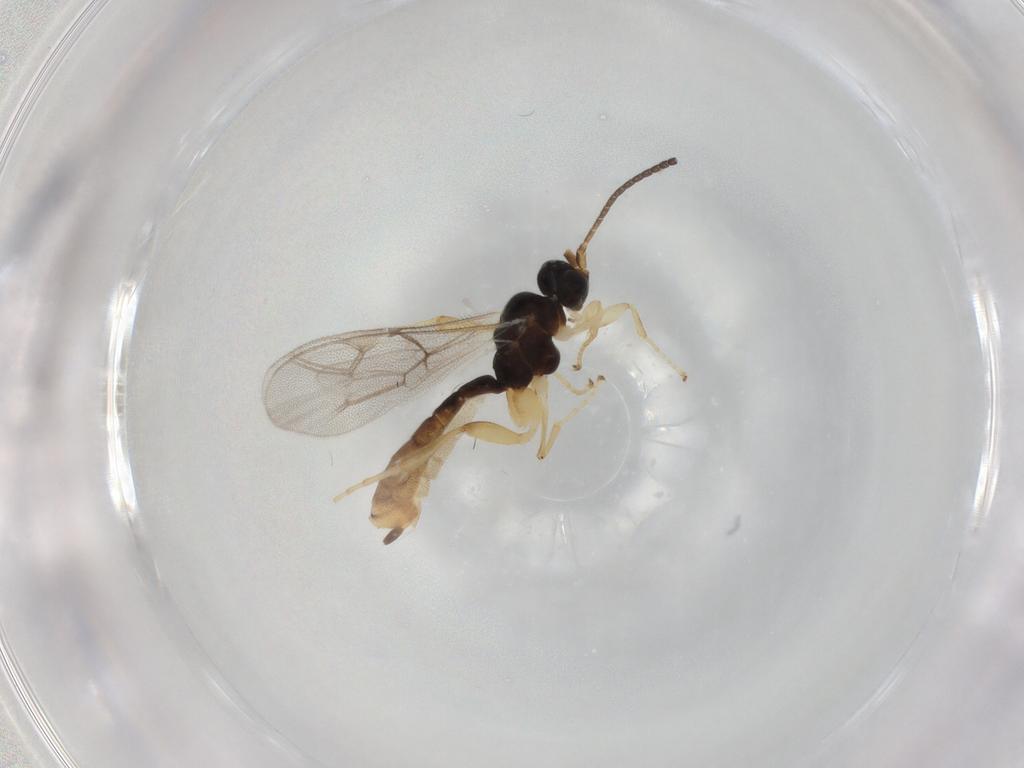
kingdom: Animalia
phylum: Arthropoda
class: Insecta
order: Hymenoptera
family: Ichneumonidae
